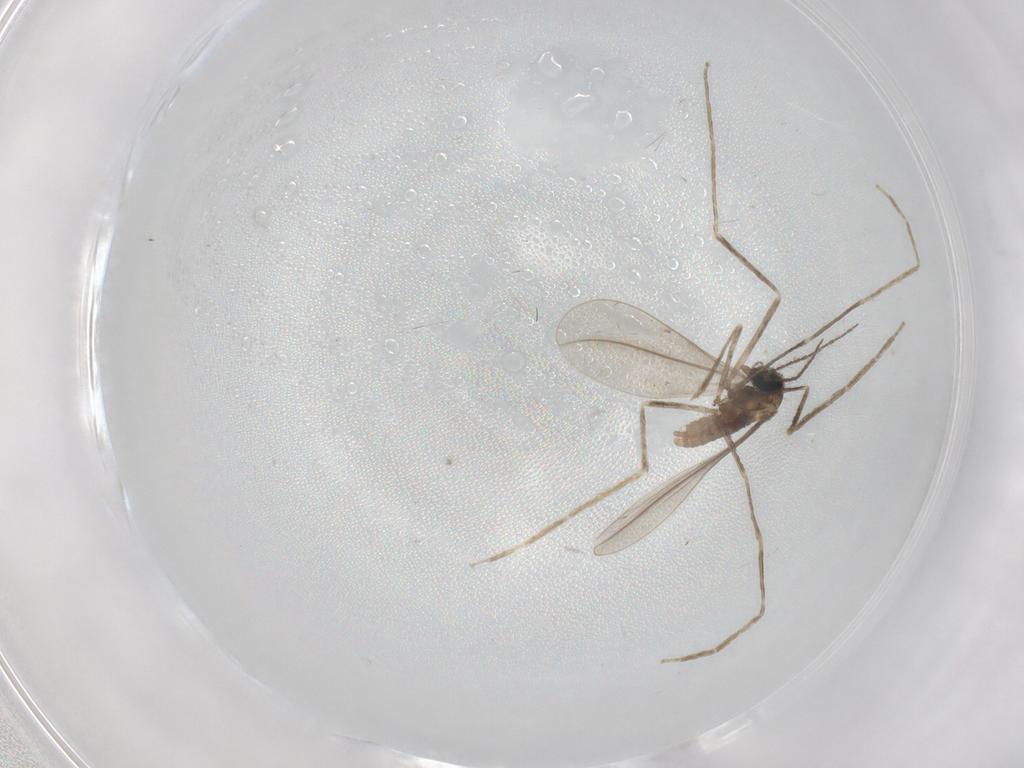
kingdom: Animalia
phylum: Arthropoda
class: Insecta
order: Diptera
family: Cecidomyiidae
